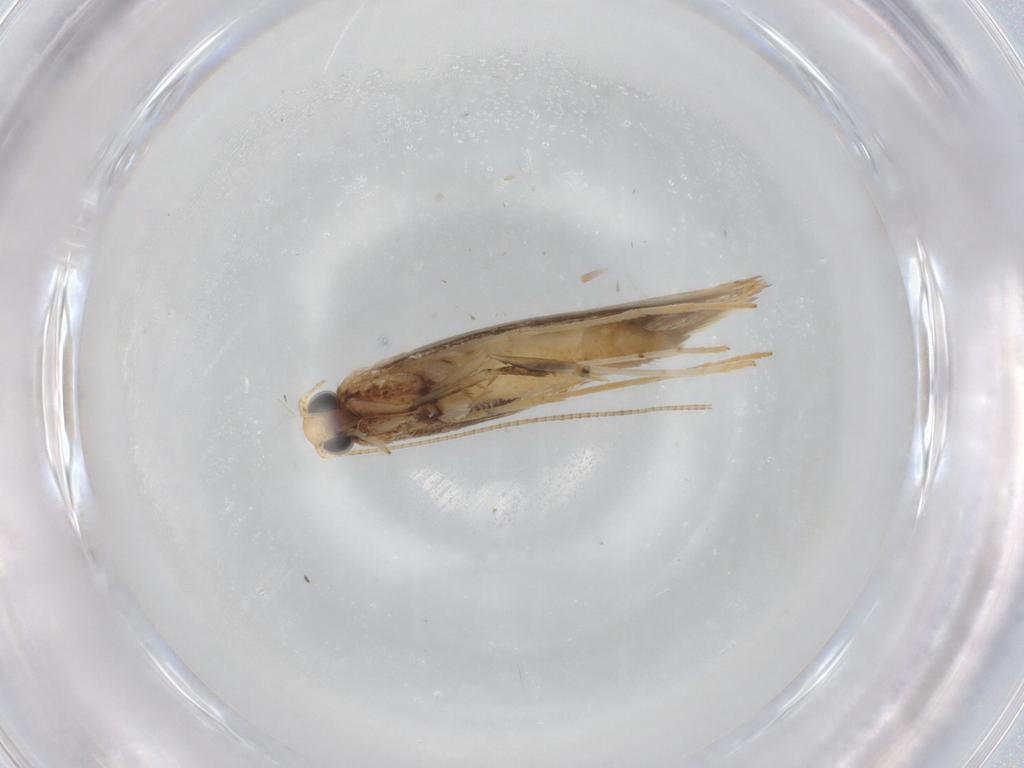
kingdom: Animalia
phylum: Arthropoda
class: Insecta
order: Lepidoptera
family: Gracillariidae
